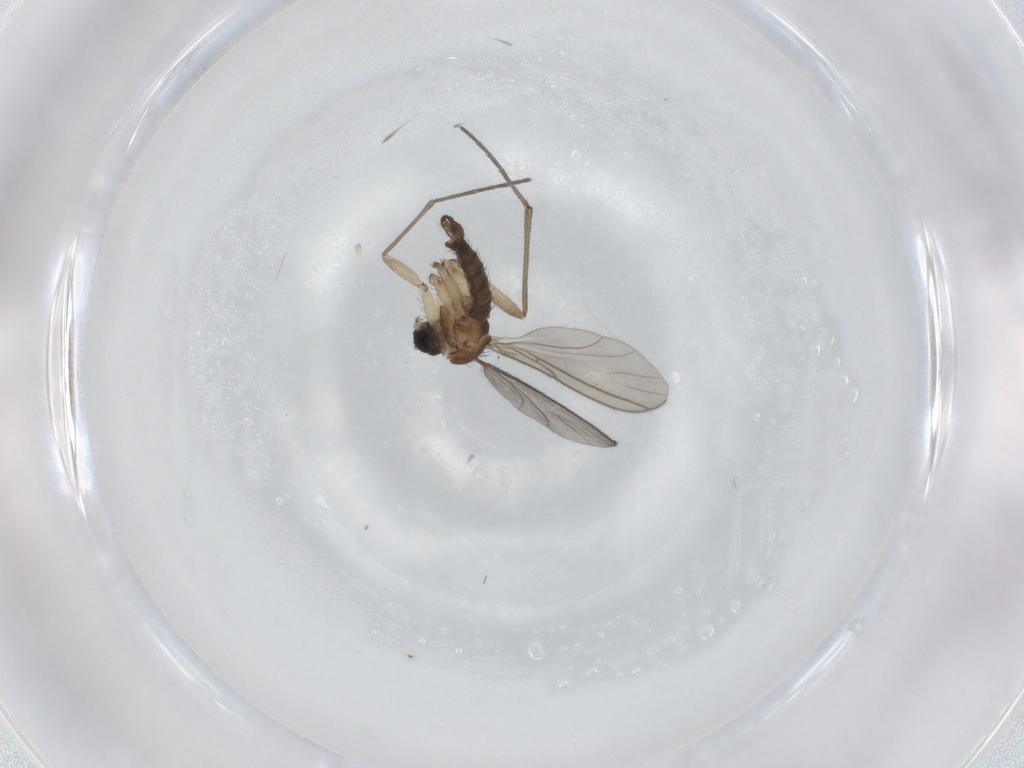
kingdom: Animalia
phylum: Arthropoda
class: Insecta
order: Diptera
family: Sciaridae
